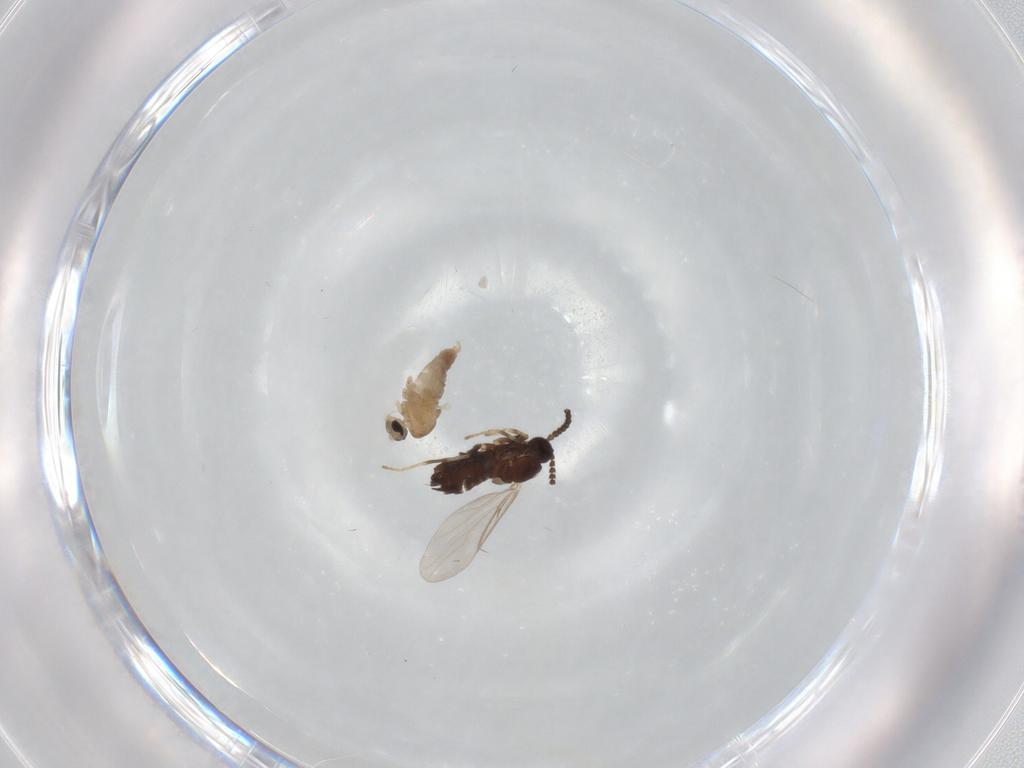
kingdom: Animalia
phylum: Arthropoda
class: Insecta
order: Diptera
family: Cecidomyiidae
